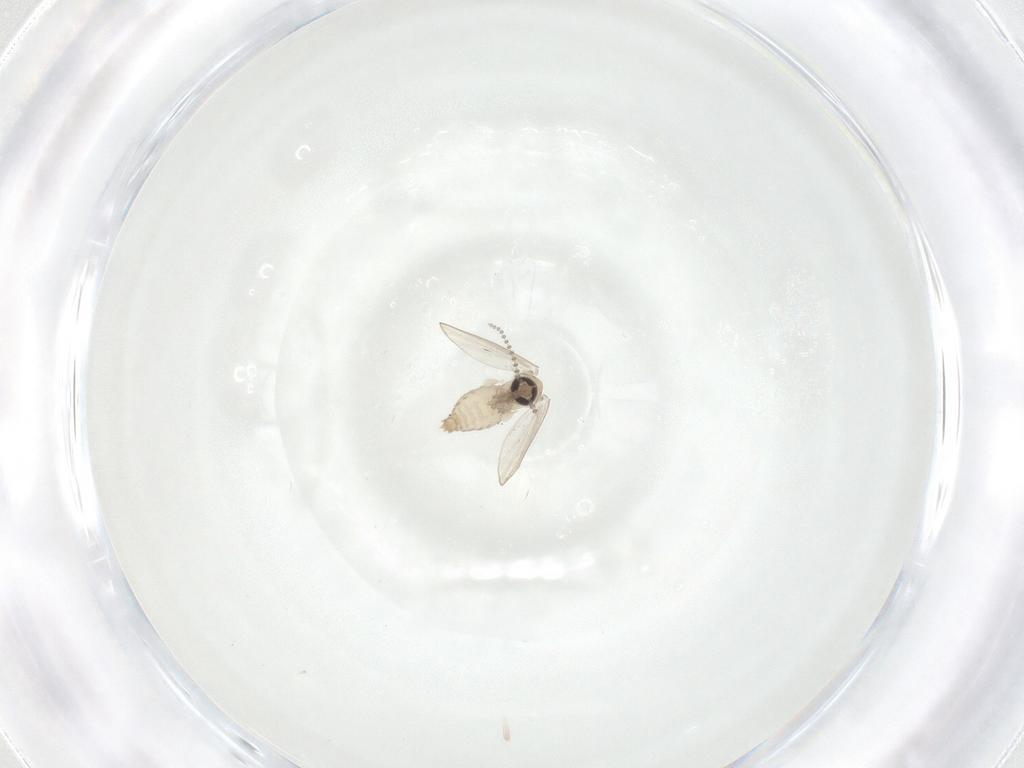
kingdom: Animalia
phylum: Arthropoda
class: Insecta
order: Diptera
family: Psychodidae
